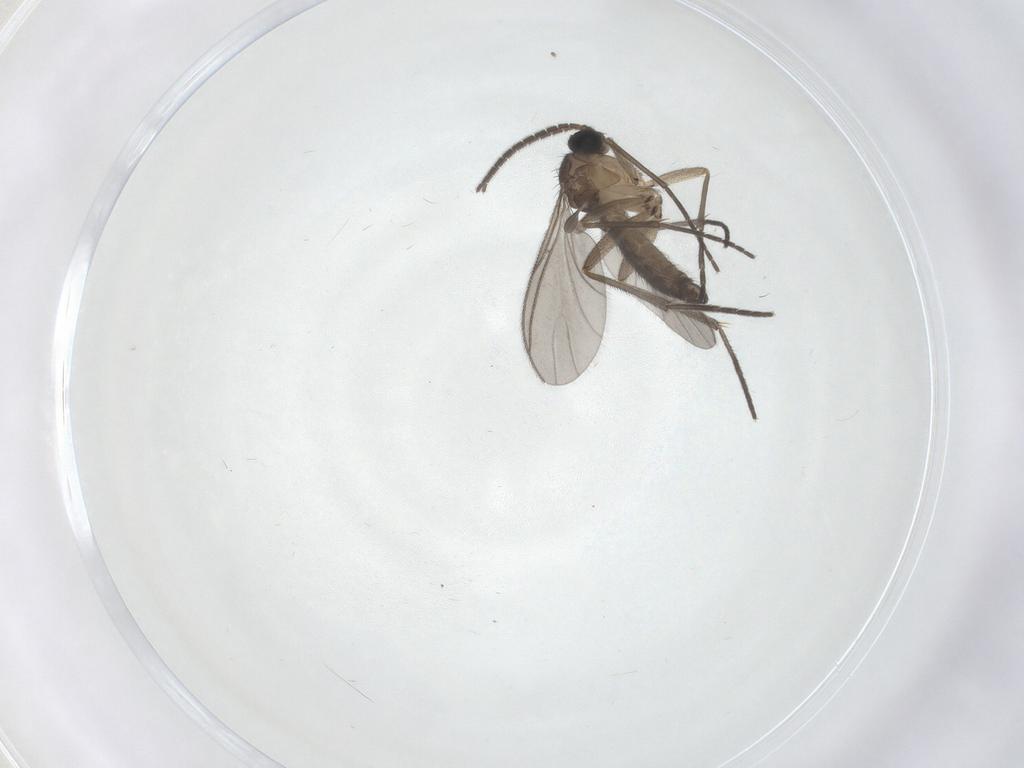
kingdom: Animalia
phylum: Arthropoda
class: Insecta
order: Diptera
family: Sciaridae
